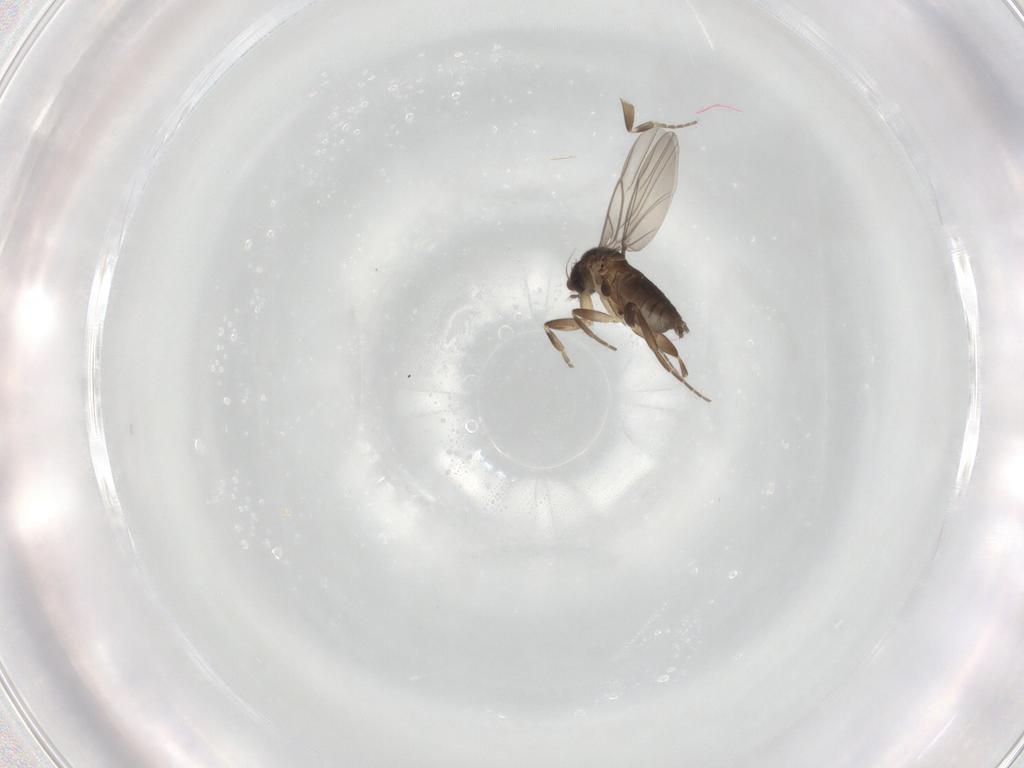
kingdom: Animalia
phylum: Arthropoda
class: Insecta
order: Diptera
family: Phoridae
